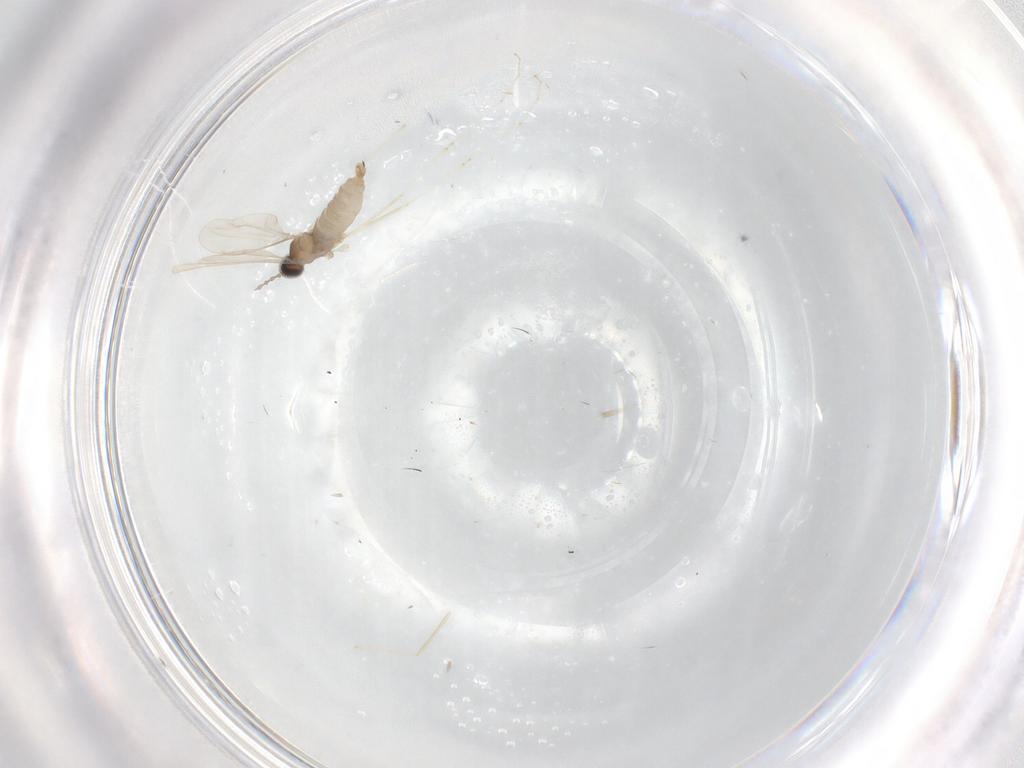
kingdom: Animalia
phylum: Arthropoda
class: Insecta
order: Diptera
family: Cecidomyiidae
